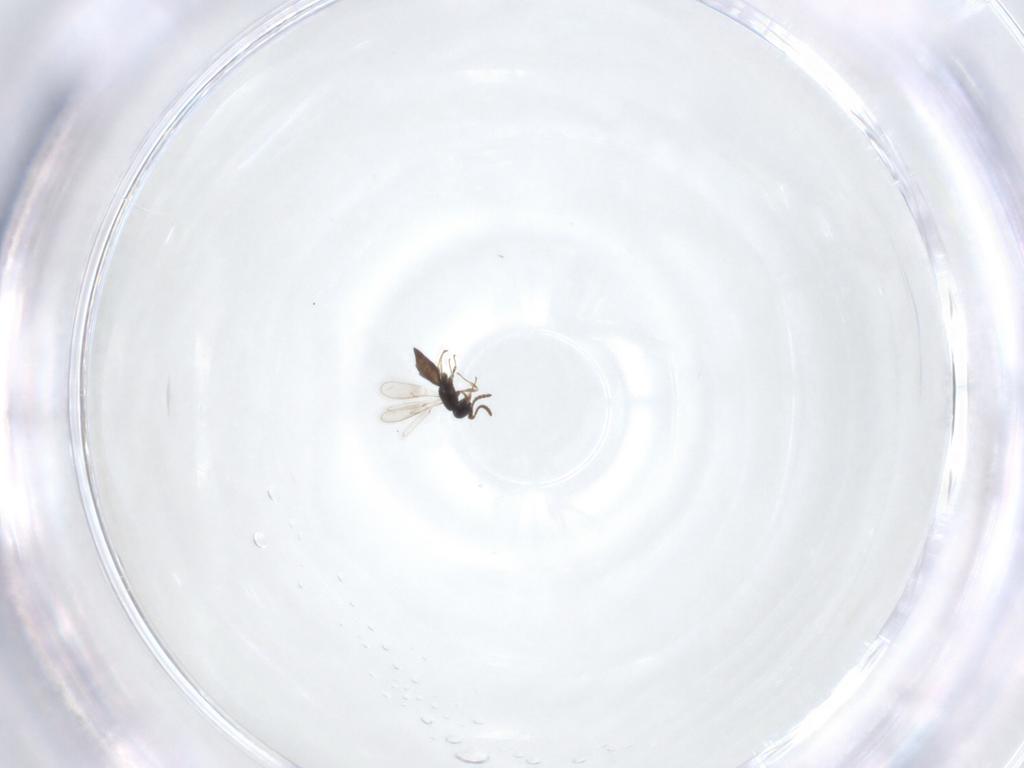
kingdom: Animalia
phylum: Arthropoda
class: Insecta
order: Hymenoptera
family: Scelionidae
